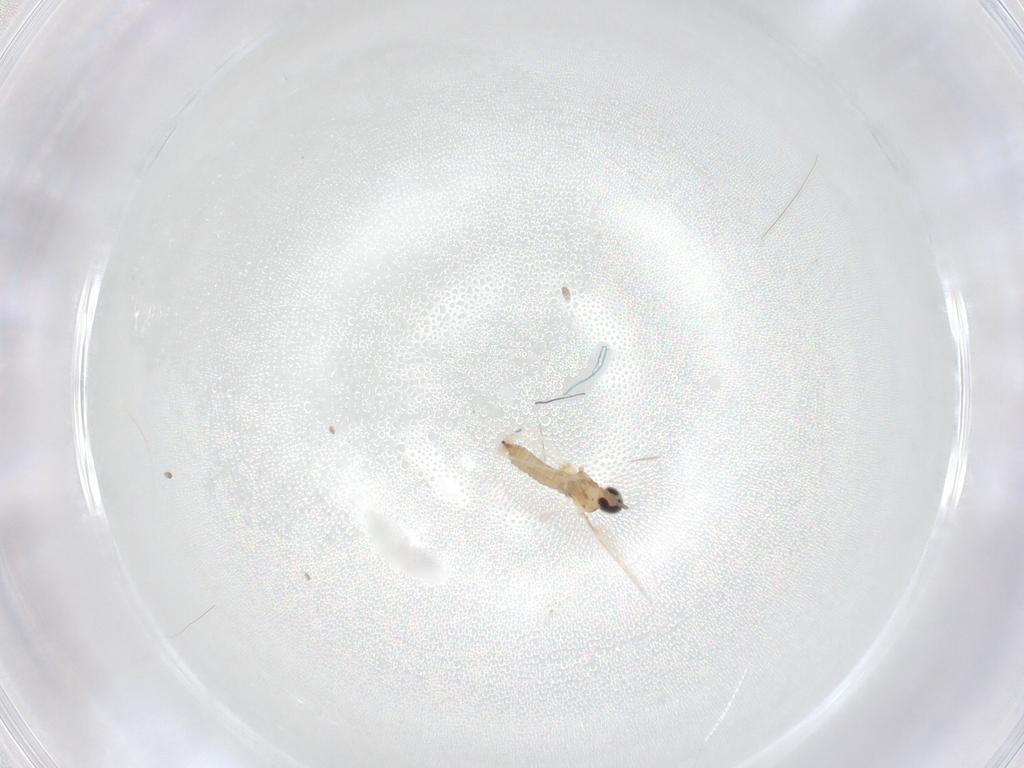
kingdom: Animalia
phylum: Arthropoda
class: Insecta
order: Diptera
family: Cecidomyiidae
